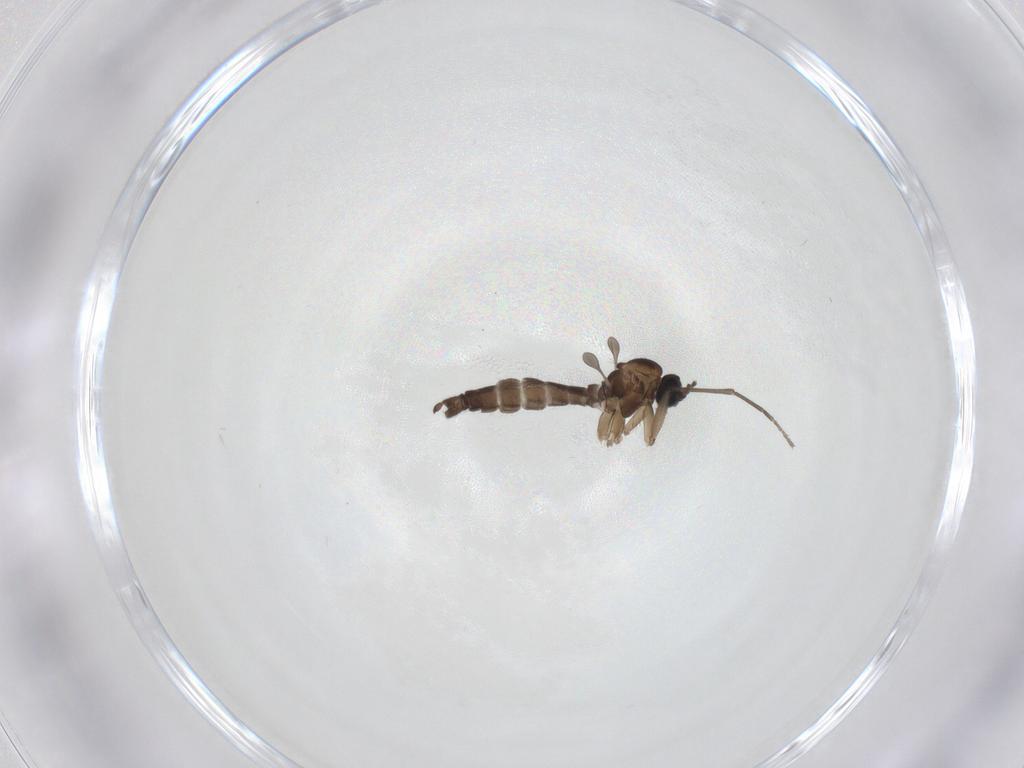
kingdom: Animalia
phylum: Arthropoda
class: Insecta
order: Diptera
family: Sciaridae
